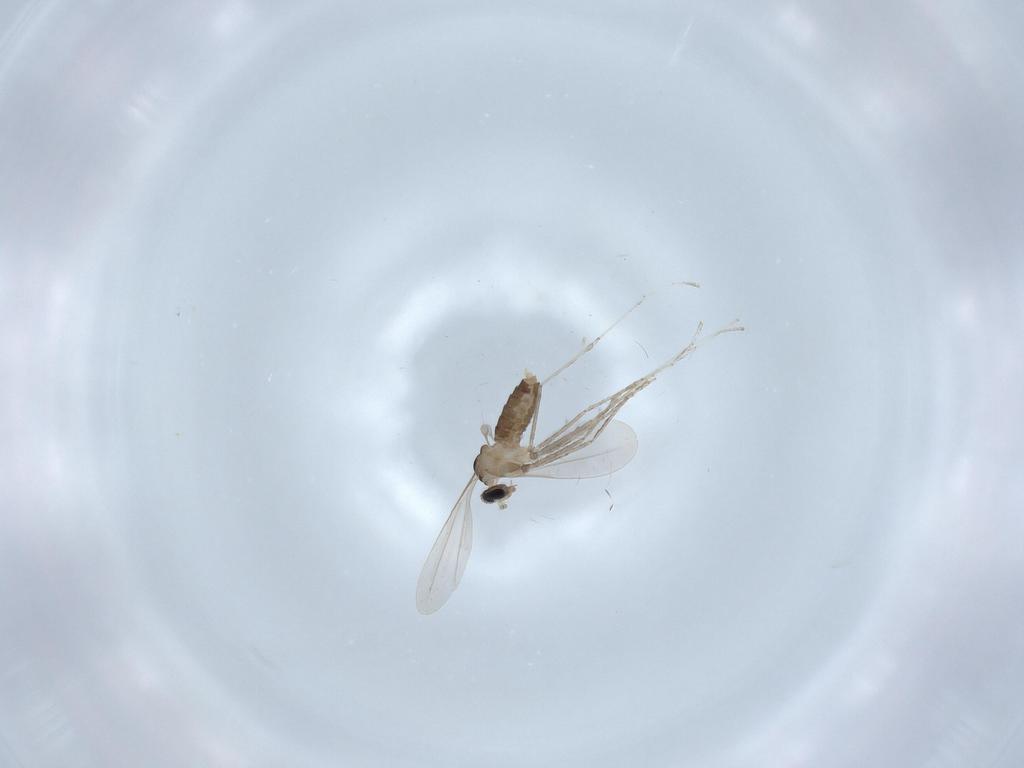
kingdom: Animalia
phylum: Arthropoda
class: Insecta
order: Diptera
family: Cecidomyiidae
